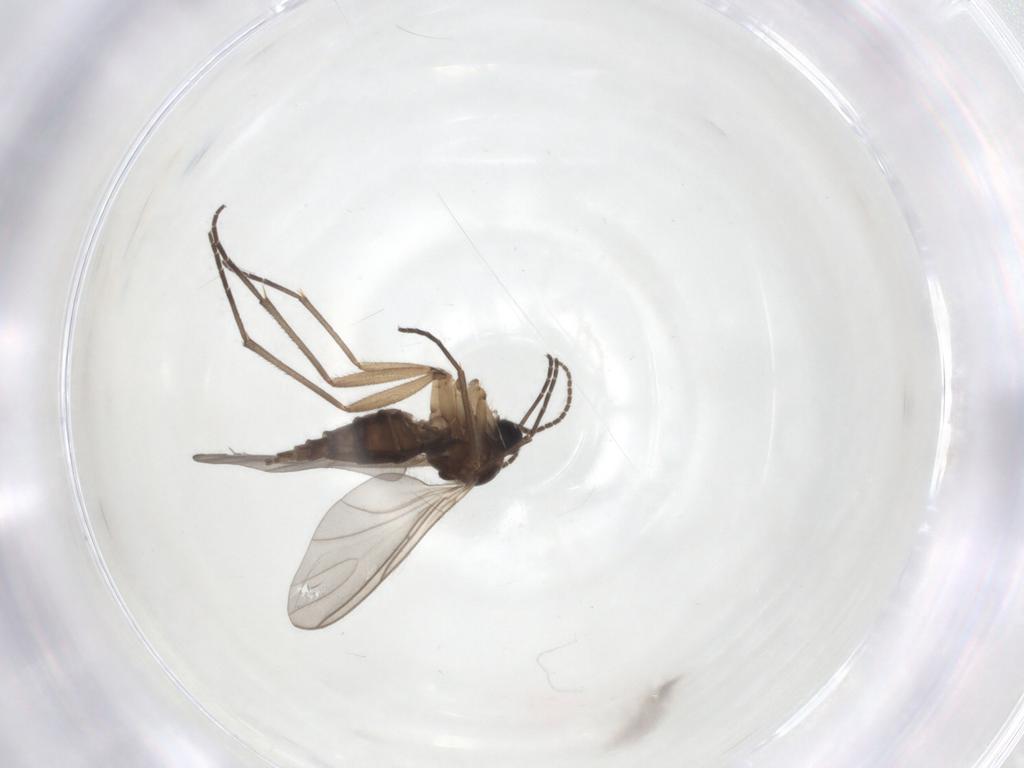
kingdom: Animalia
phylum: Arthropoda
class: Insecta
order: Diptera
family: Sciaridae
